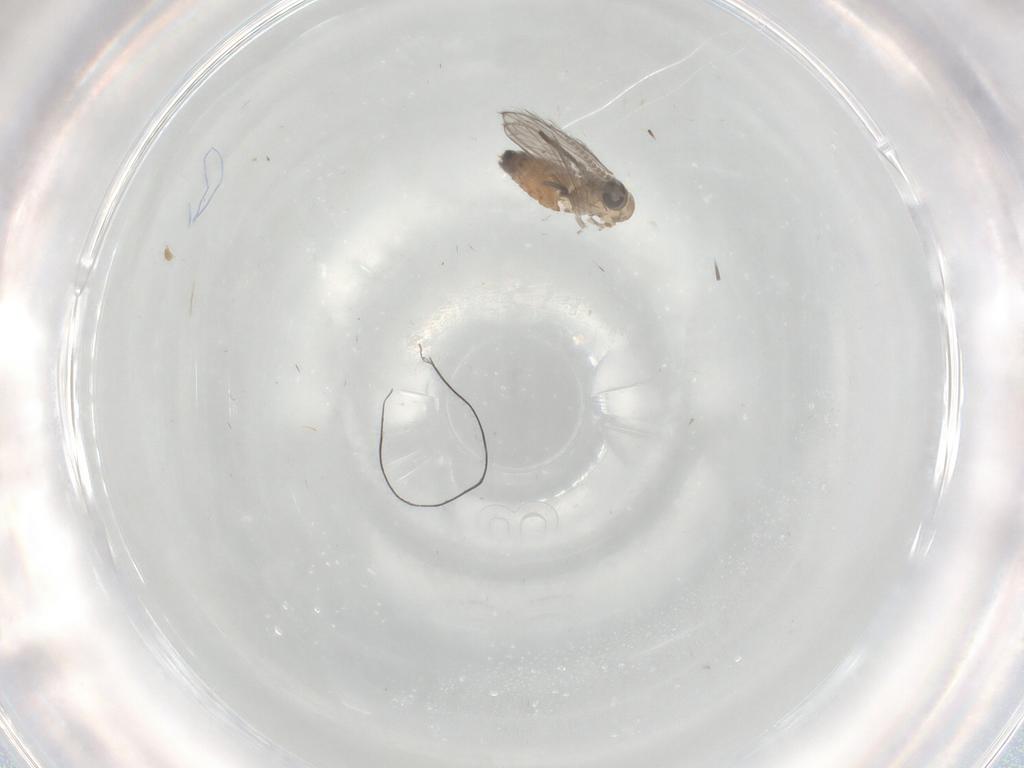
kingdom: Animalia
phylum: Arthropoda
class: Insecta
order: Diptera
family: Psychodidae
